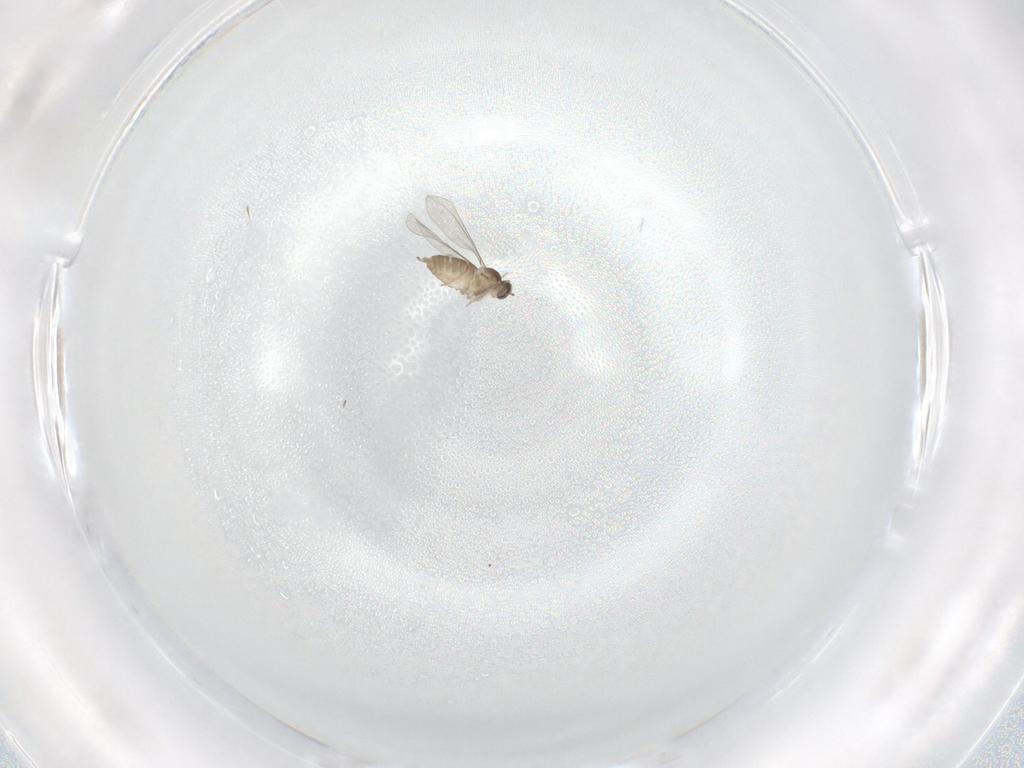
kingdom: Animalia
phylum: Arthropoda
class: Insecta
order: Diptera
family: Cecidomyiidae
